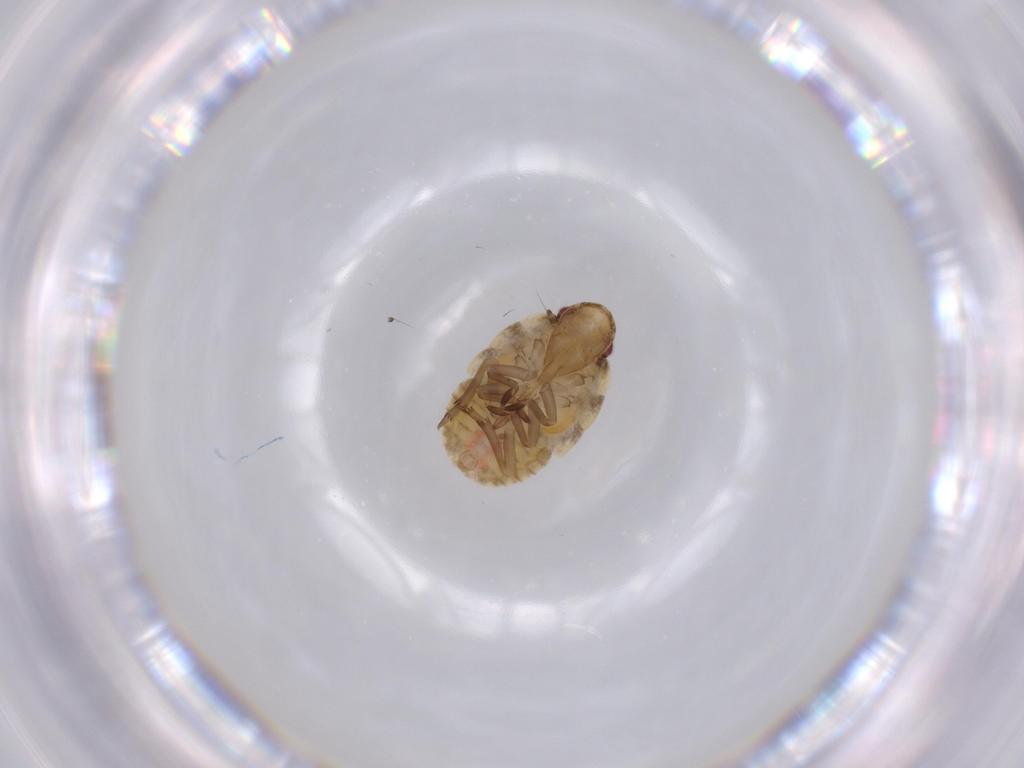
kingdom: Animalia
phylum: Arthropoda
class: Insecta
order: Hemiptera
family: Flatidae
